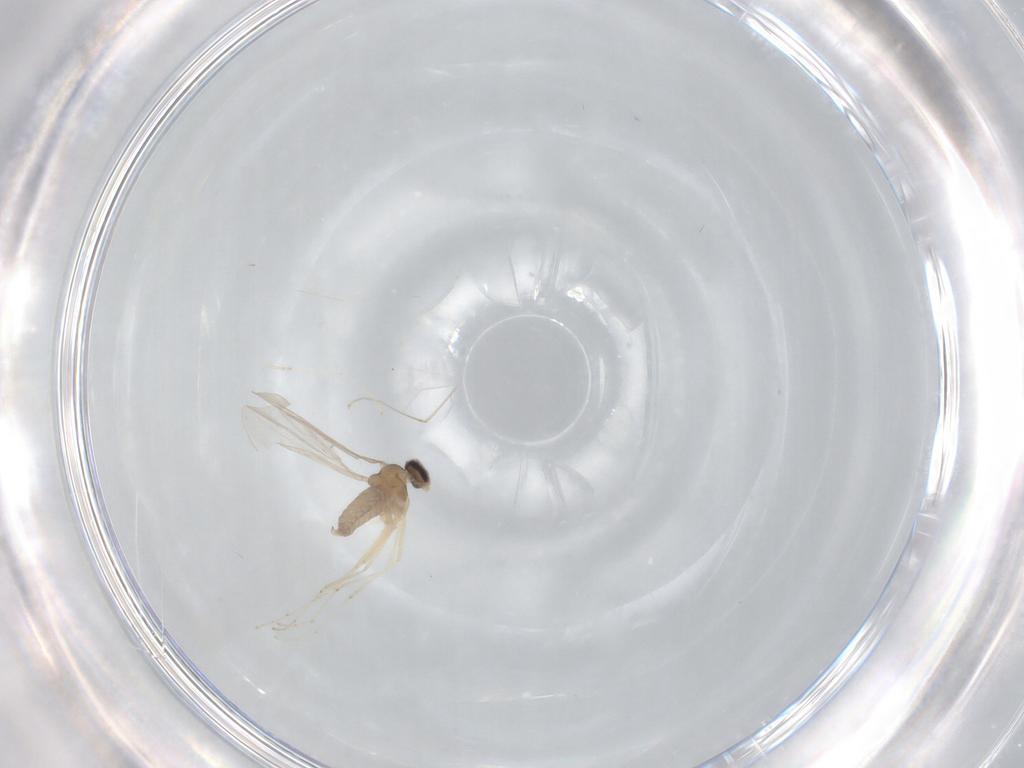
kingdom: Animalia
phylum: Arthropoda
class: Insecta
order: Diptera
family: Cecidomyiidae
